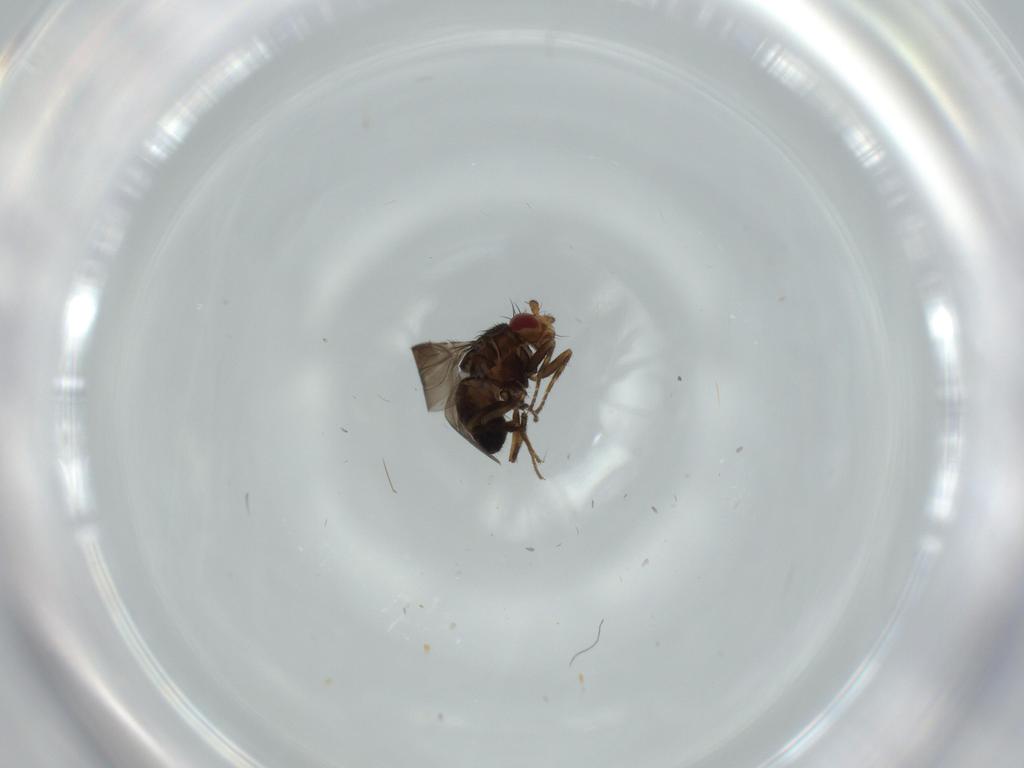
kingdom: Animalia
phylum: Arthropoda
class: Insecta
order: Diptera
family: Sphaeroceridae
